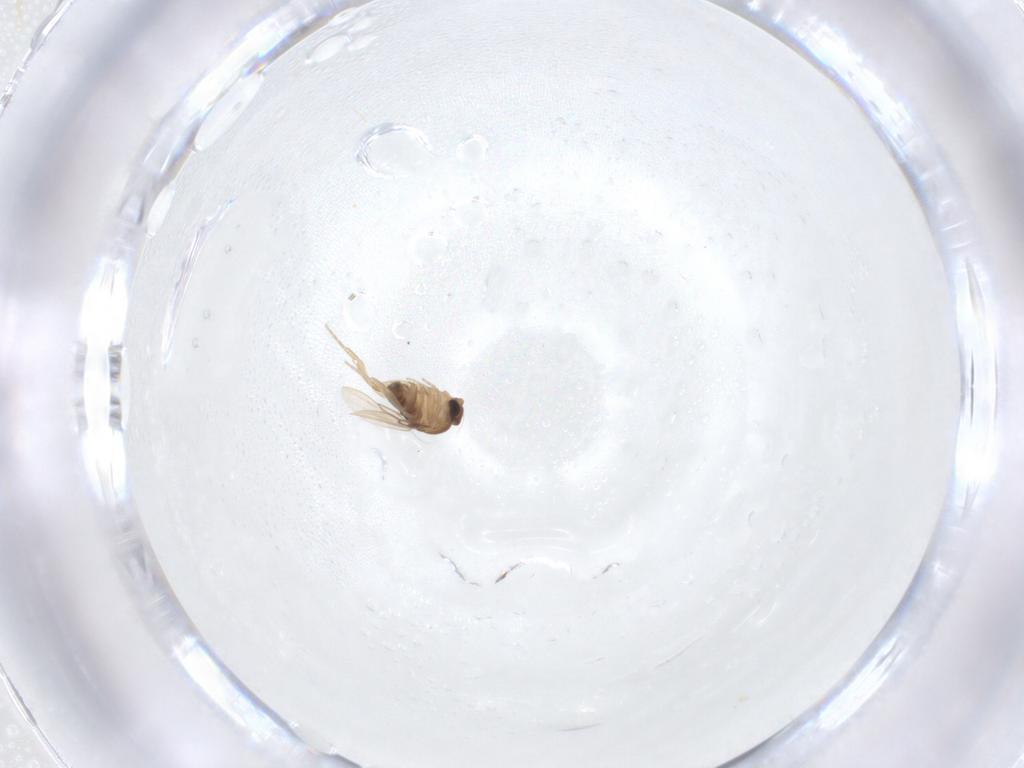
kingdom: Animalia
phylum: Arthropoda
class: Insecta
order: Diptera
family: Phoridae
